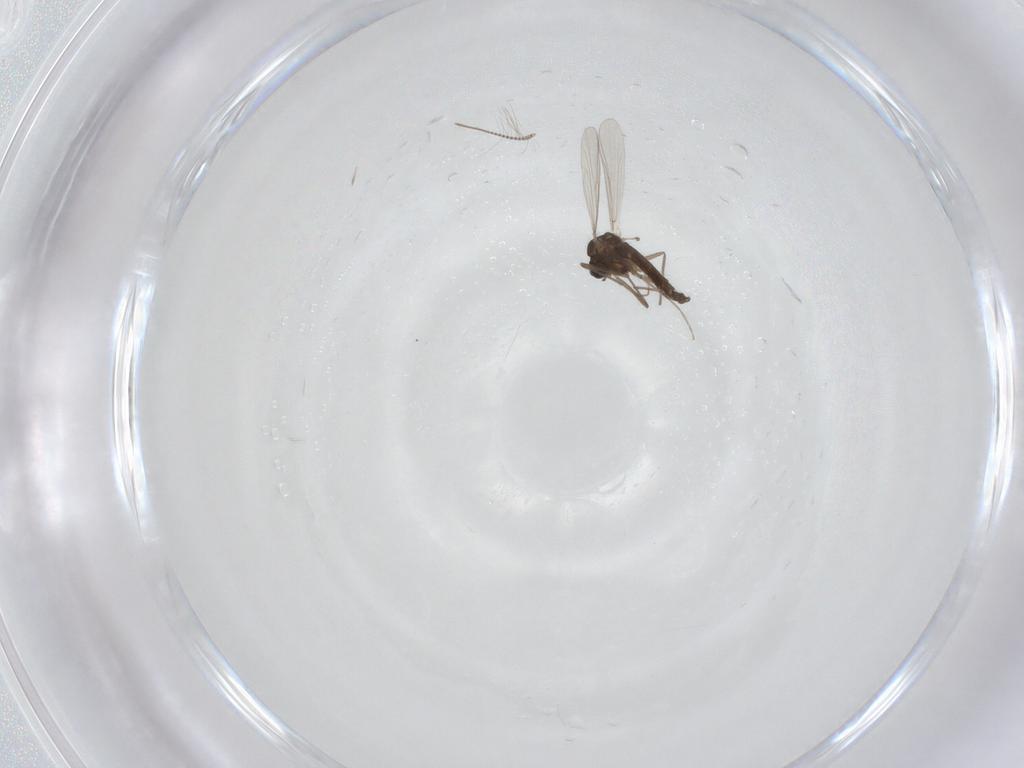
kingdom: Animalia
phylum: Arthropoda
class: Insecta
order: Diptera
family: Chironomidae
